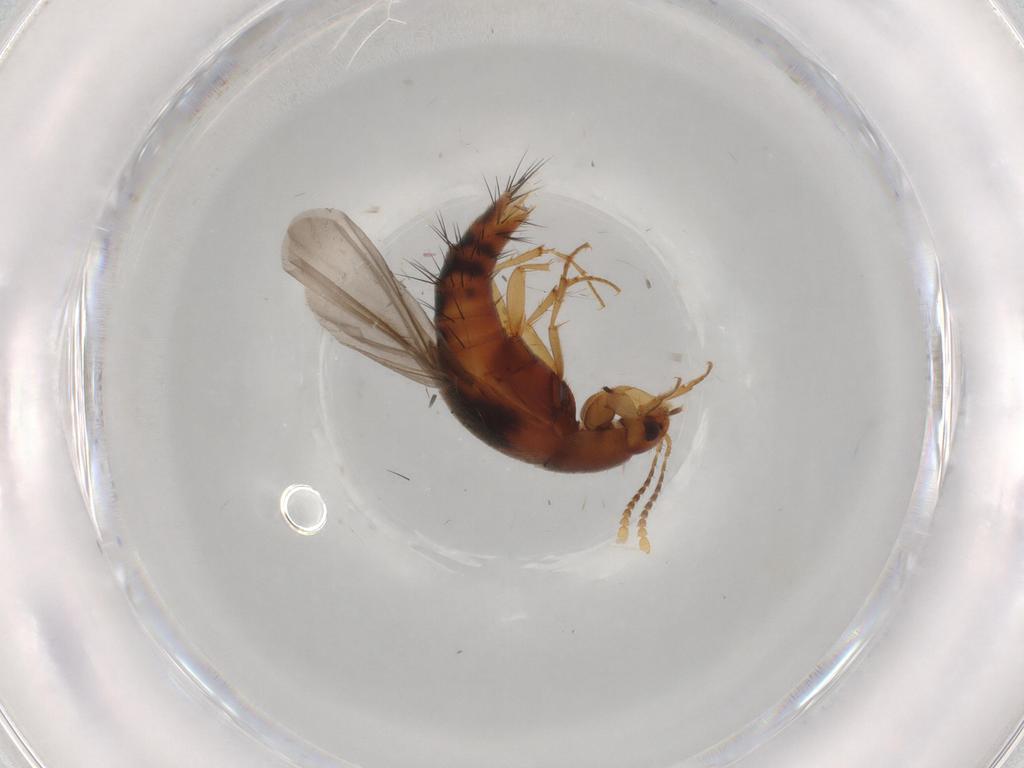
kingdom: Animalia
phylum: Arthropoda
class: Insecta
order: Coleoptera
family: Staphylinidae
